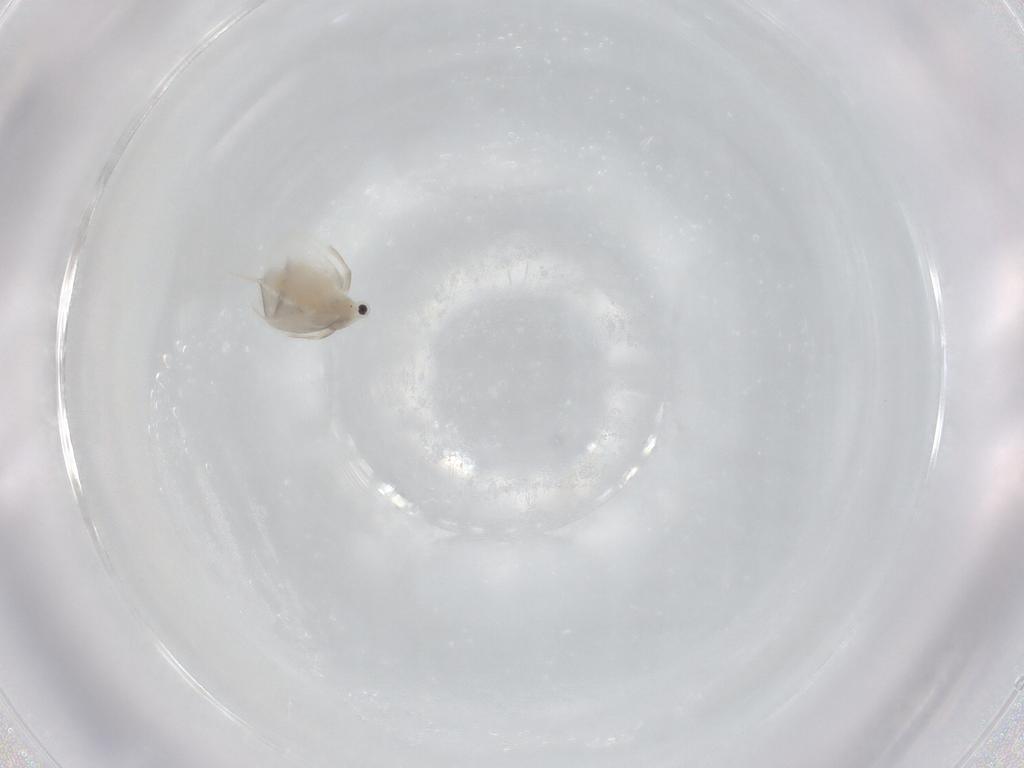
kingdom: Animalia
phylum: Arthropoda
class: Branchiopoda
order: Diplostraca
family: Daphniidae
